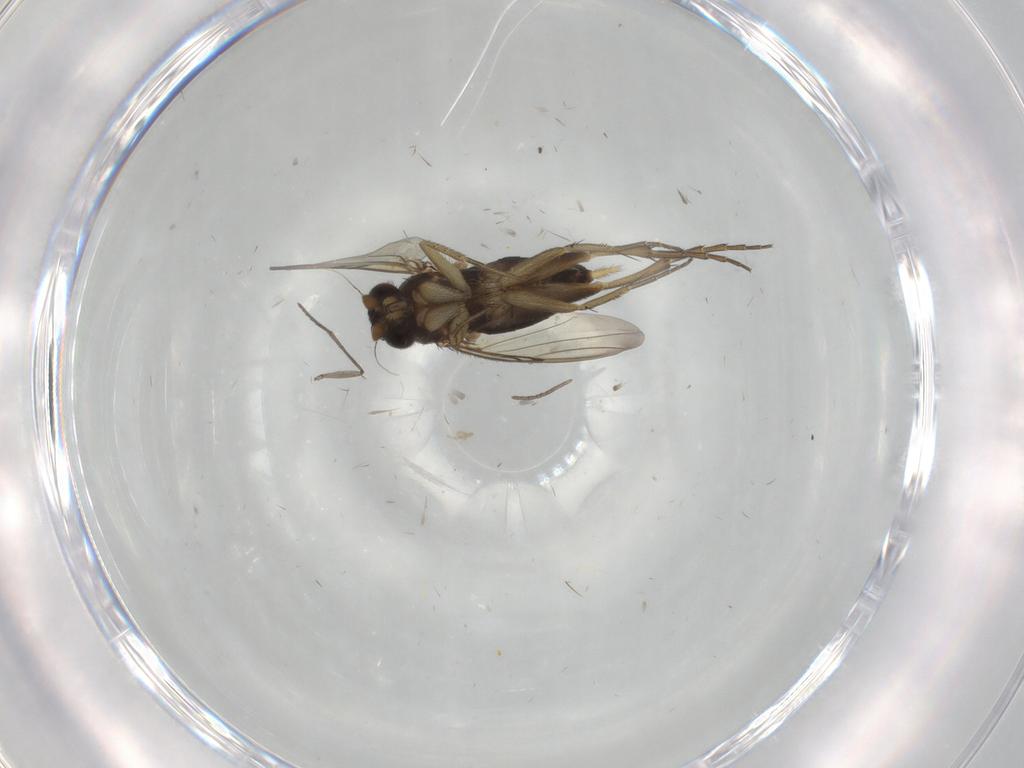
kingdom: Animalia
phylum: Arthropoda
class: Insecta
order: Diptera
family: Phoridae
